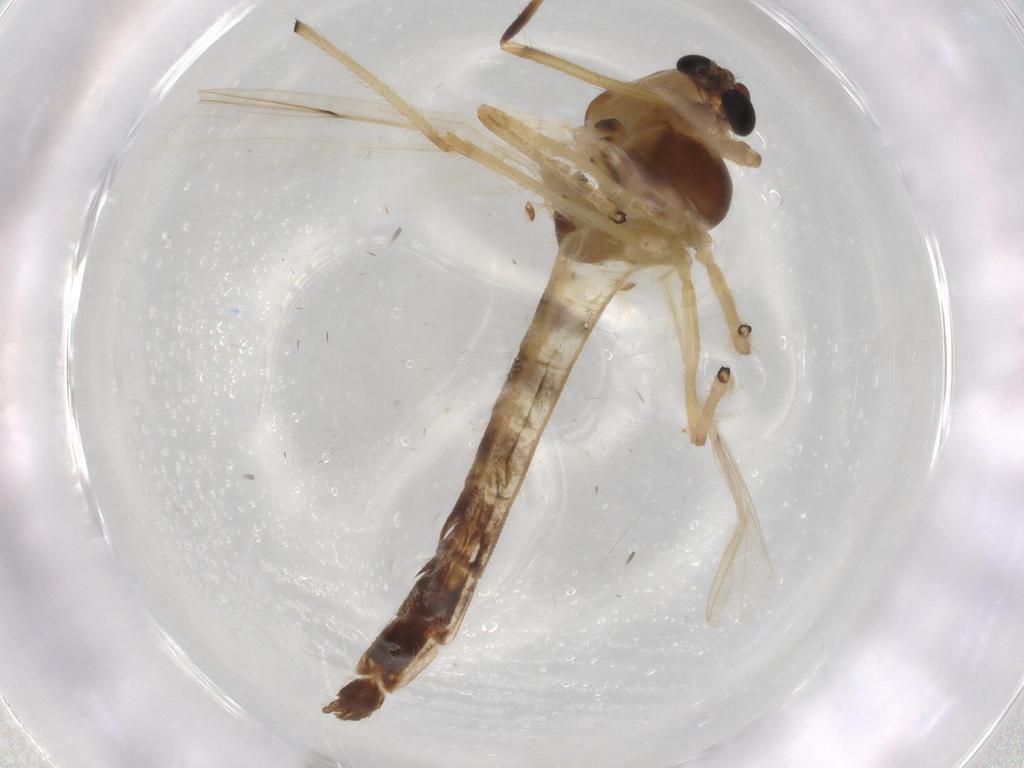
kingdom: Animalia
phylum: Arthropoda
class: Insecta
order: Diptera
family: Chironomidae
